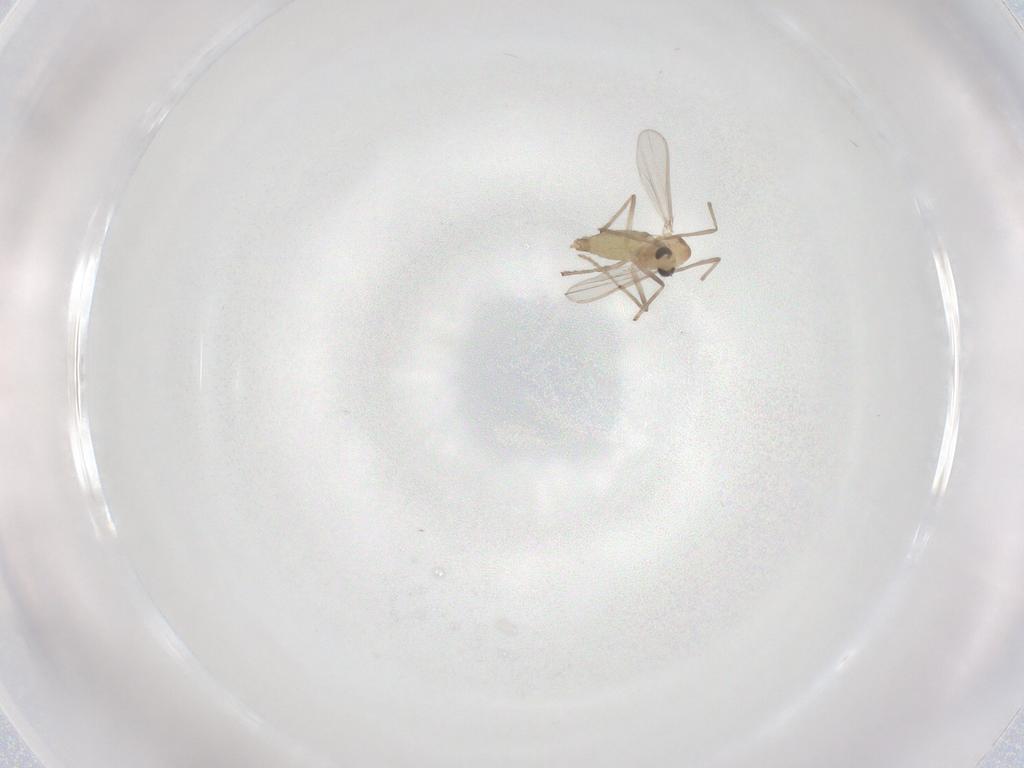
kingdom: Animalia
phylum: Arthropoda
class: Insecta
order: Diptera
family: Chironomidae
